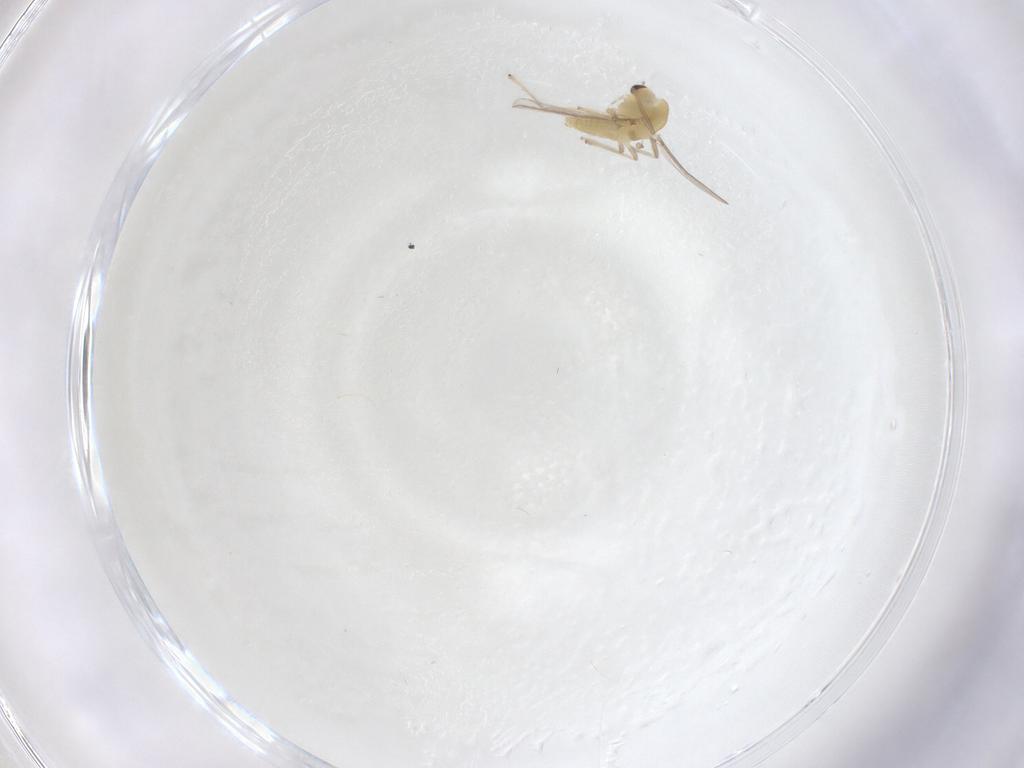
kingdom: Animalia
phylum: Arthropoda
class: Insecta
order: Diptera
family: Chironomidae
